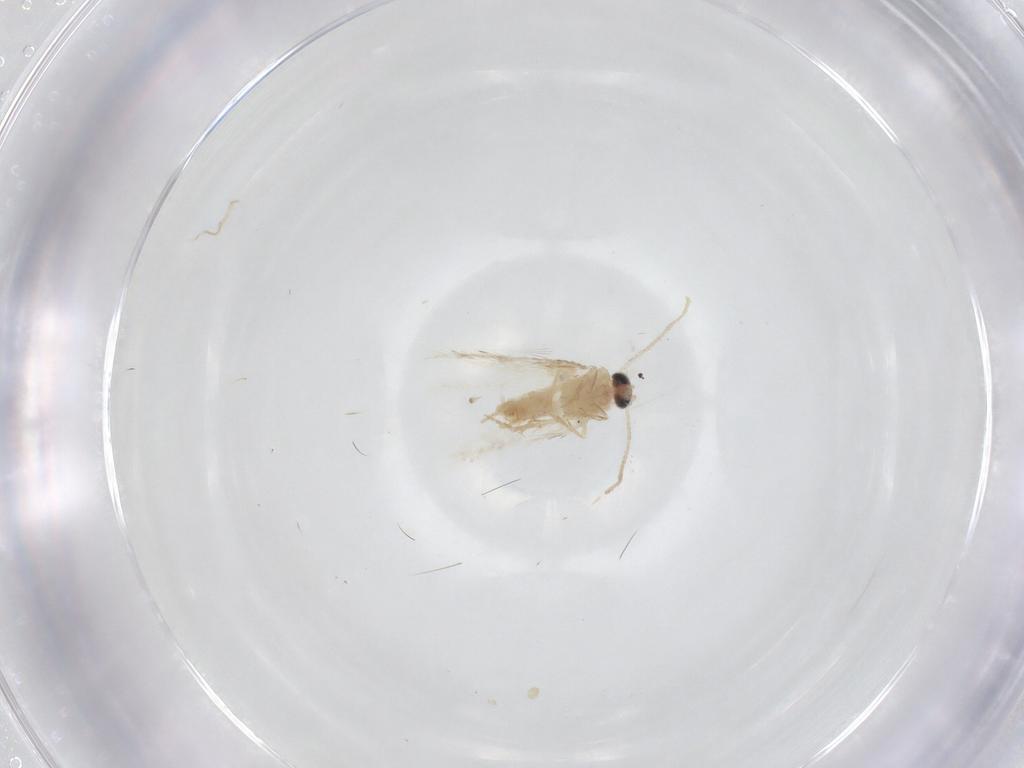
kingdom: Animalia
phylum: Arthropoda
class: Insecta
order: Lepidoptera
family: Nepticulidae
